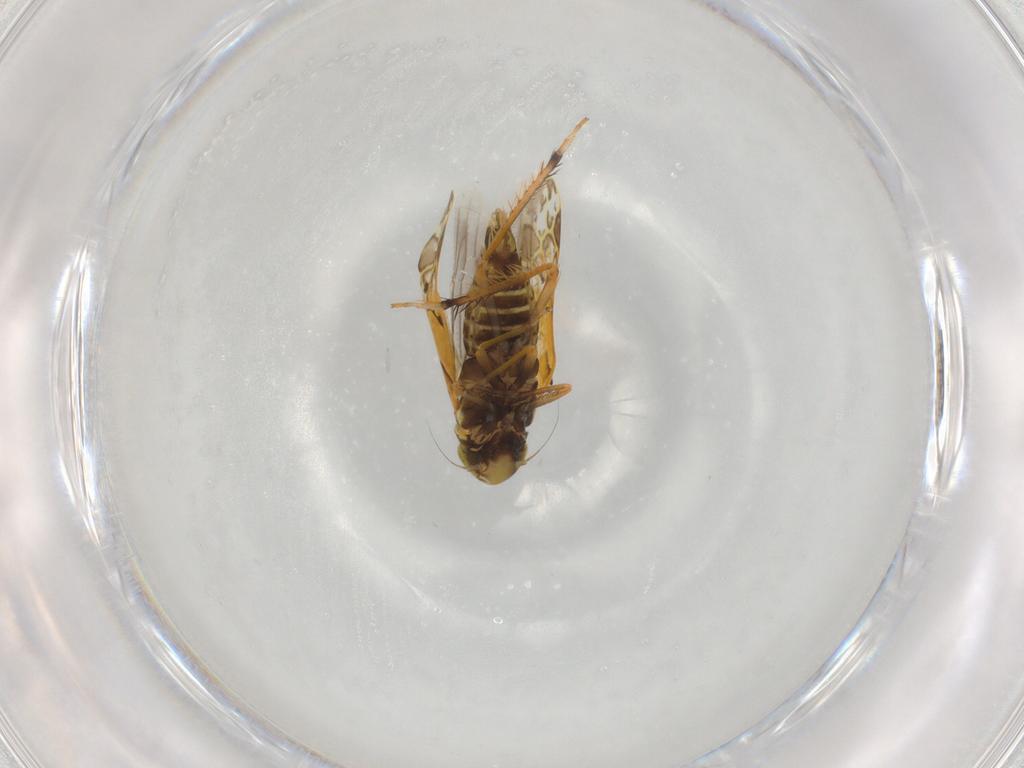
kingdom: Animalia
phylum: Arthropoda
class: Insecta
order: Hemiptera
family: Cicadellidae
